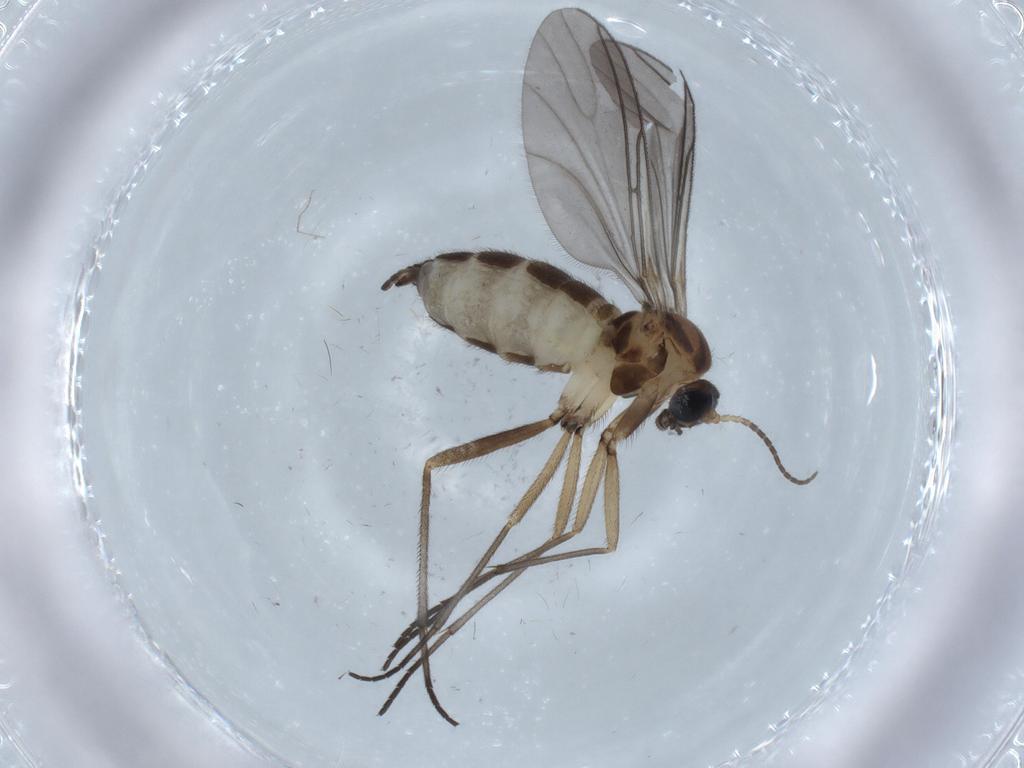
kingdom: Animalia
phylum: Arthropoda
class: Insecta
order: Diptera
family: Sciaridae
